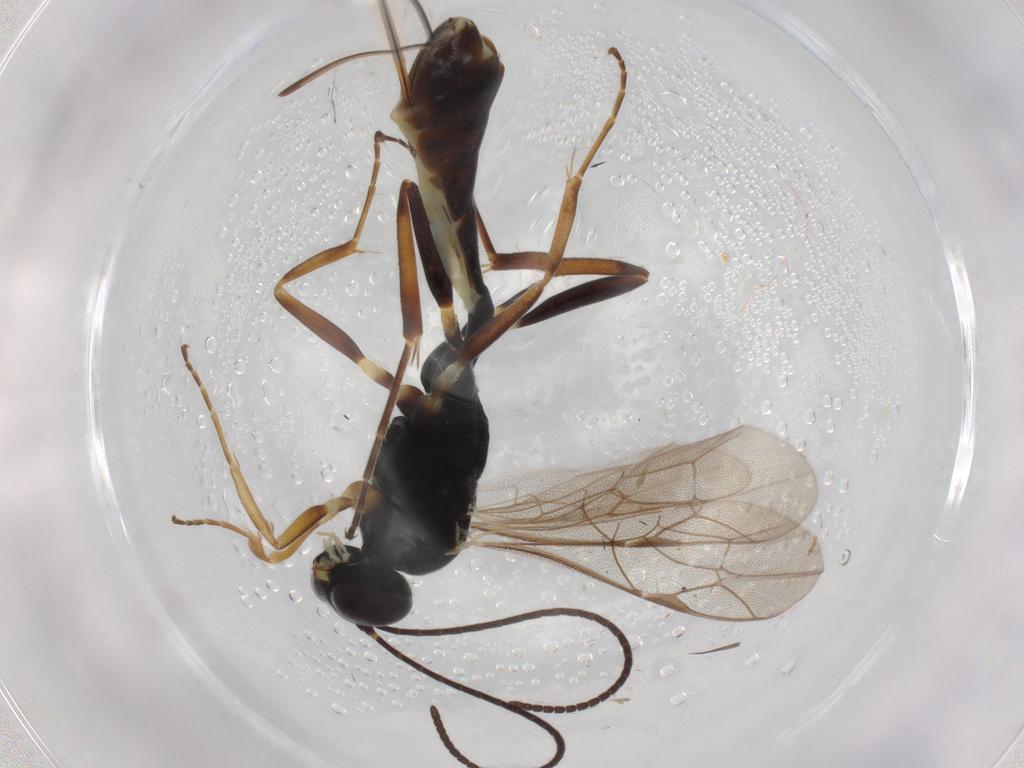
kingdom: Animalia
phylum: Arthropoda
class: Insecta
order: Hymenoptera
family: Ichneumonidae
